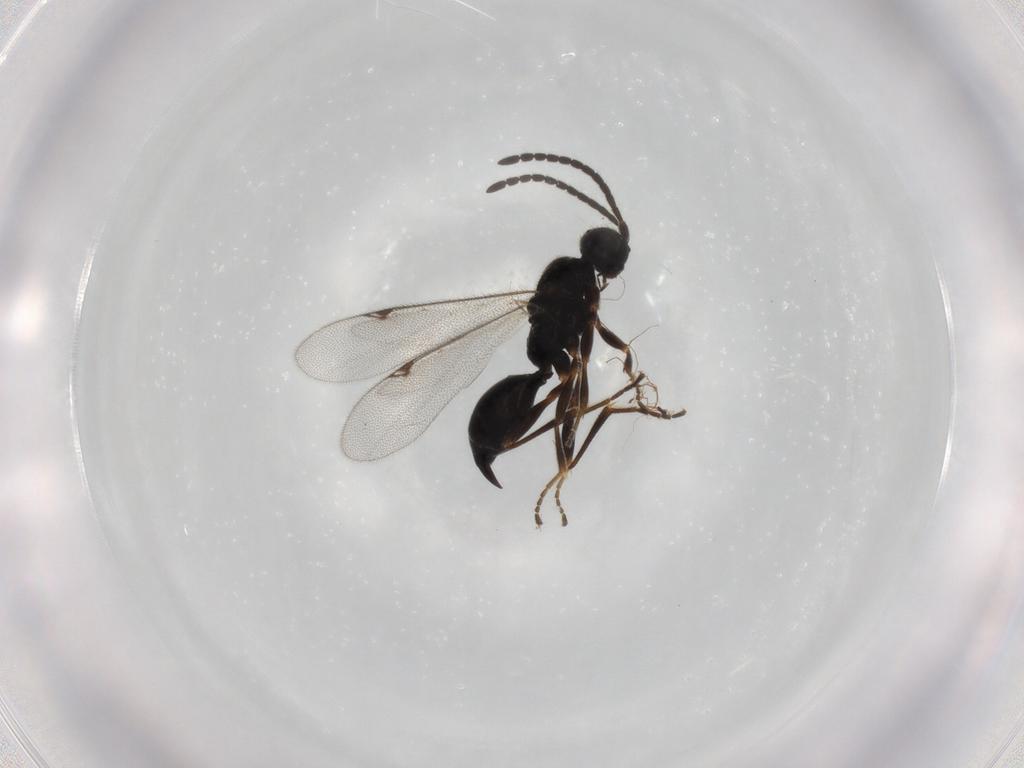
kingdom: Animalia
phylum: Arthropoda
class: Insecta
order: Hymenoptera
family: Proctotrupidae
